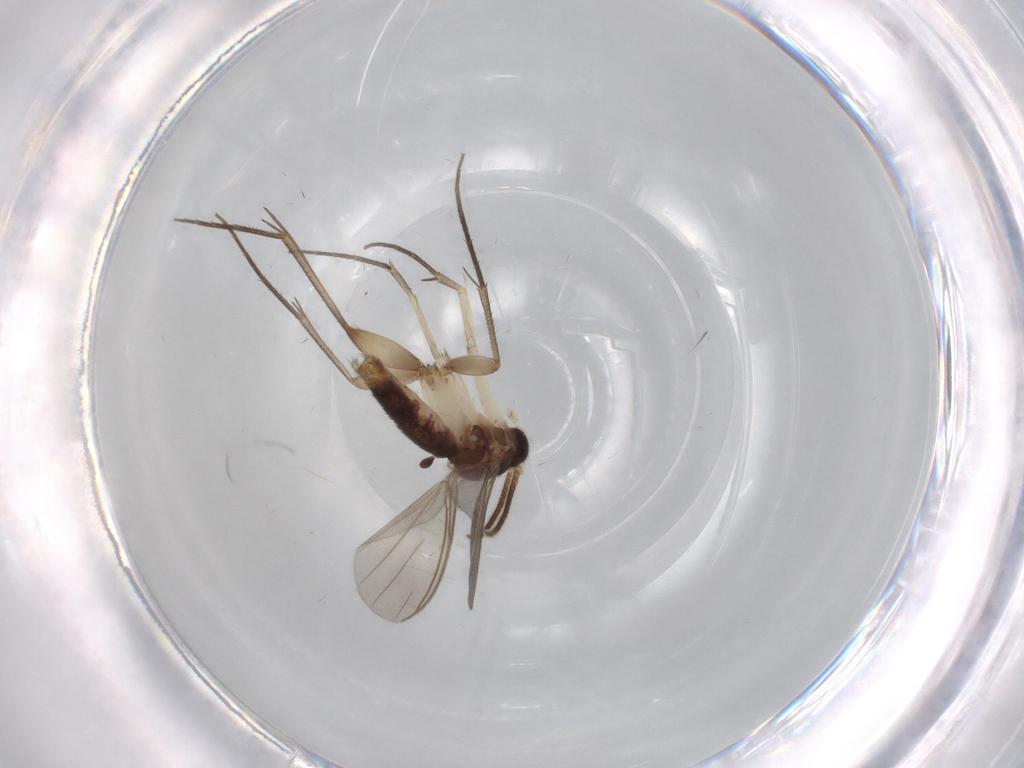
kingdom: Animalia
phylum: Arthropoda
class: Insecta
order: Diptera
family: Mycetophilidae
